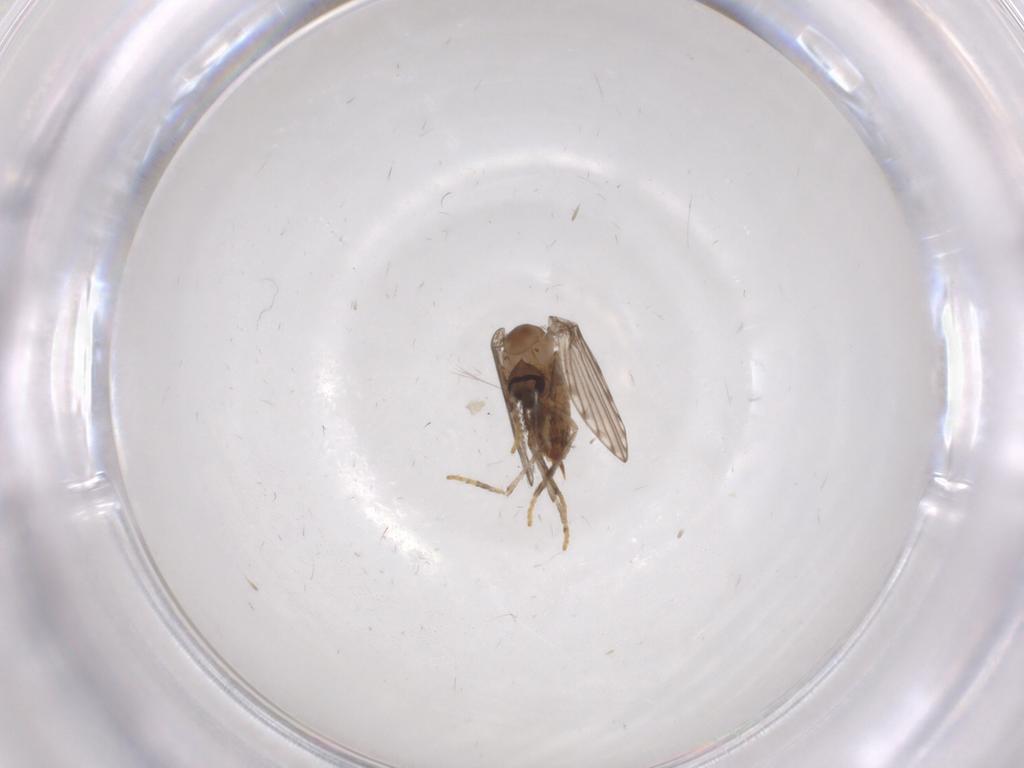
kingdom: Animalia
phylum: Arthropoda
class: Insecta
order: Diptera
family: Psychodidae
